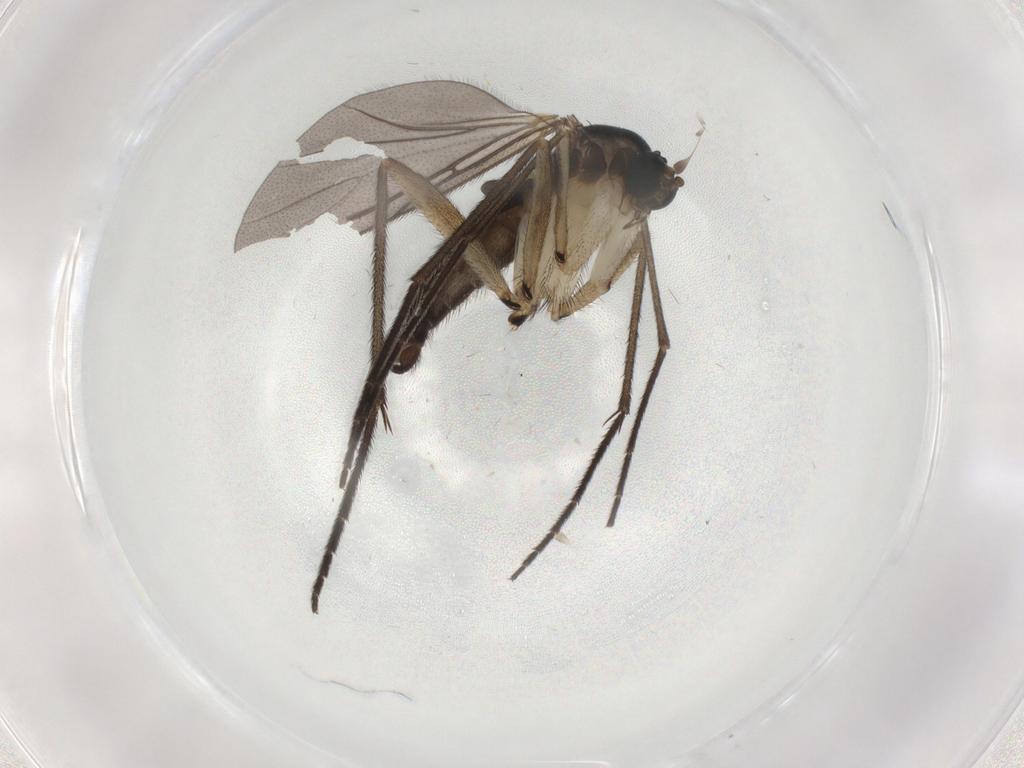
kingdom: Animalia
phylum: Arthropoda
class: Insecta
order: Diptera
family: Sciaridae
